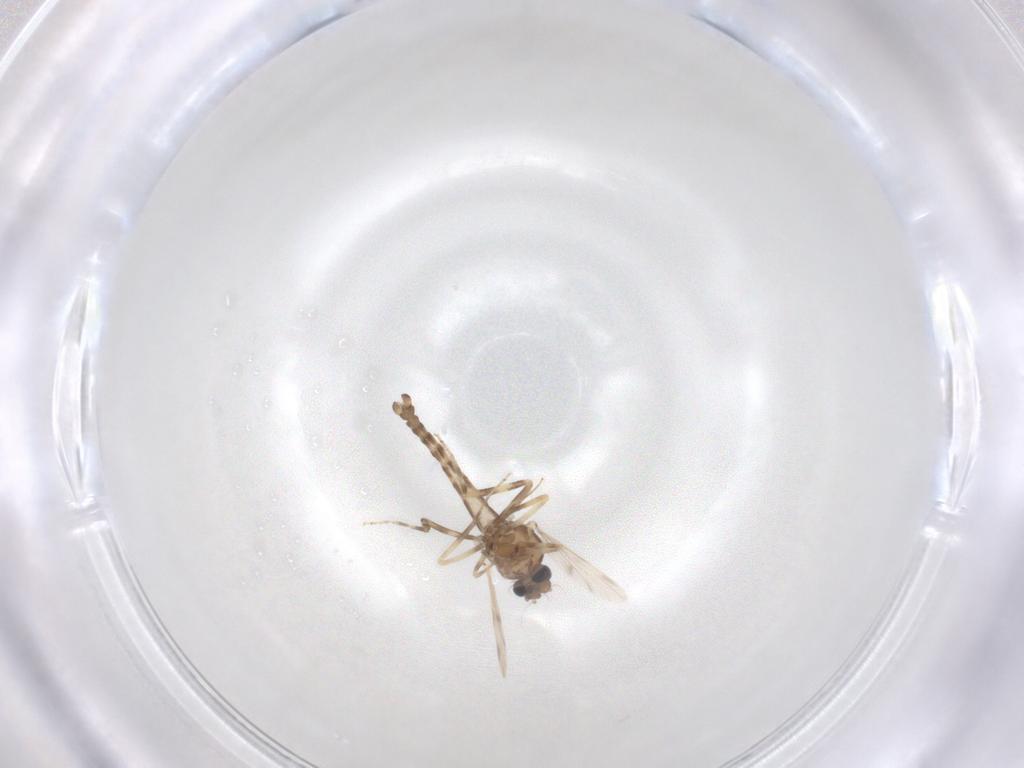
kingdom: Animalia
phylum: Arthropoda
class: Insecta
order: Diptera
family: Ceratopogonidae
